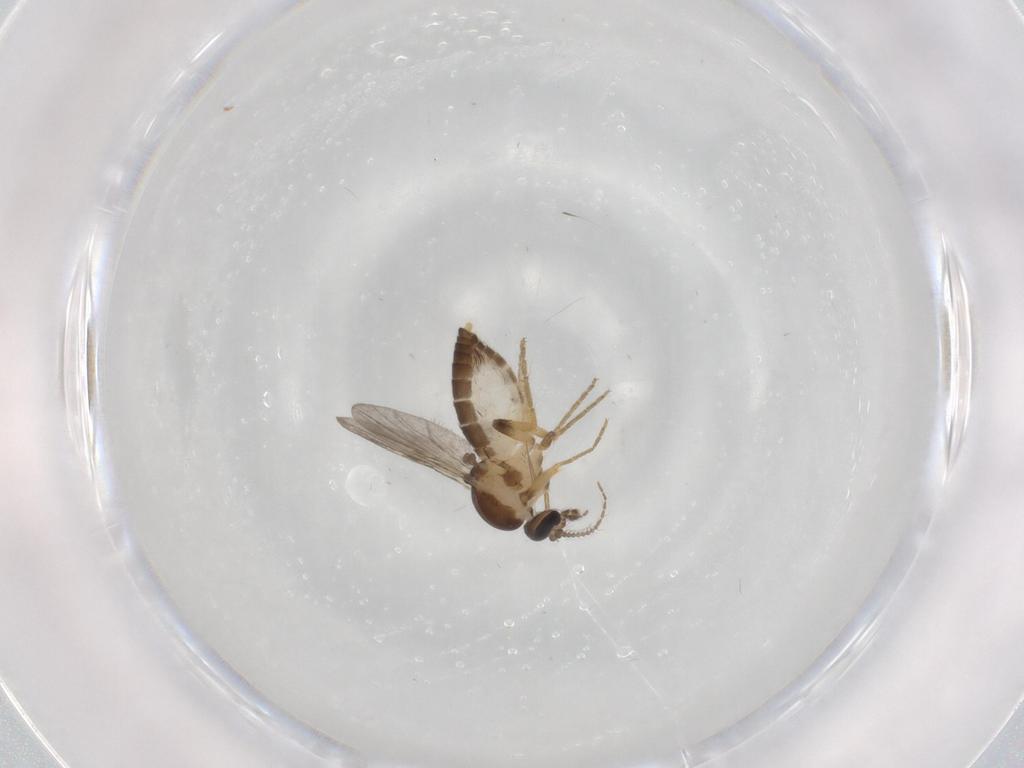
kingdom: Animalia
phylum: Arthropoda
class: Insecta
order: Diptera
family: Ceratopogonidae
